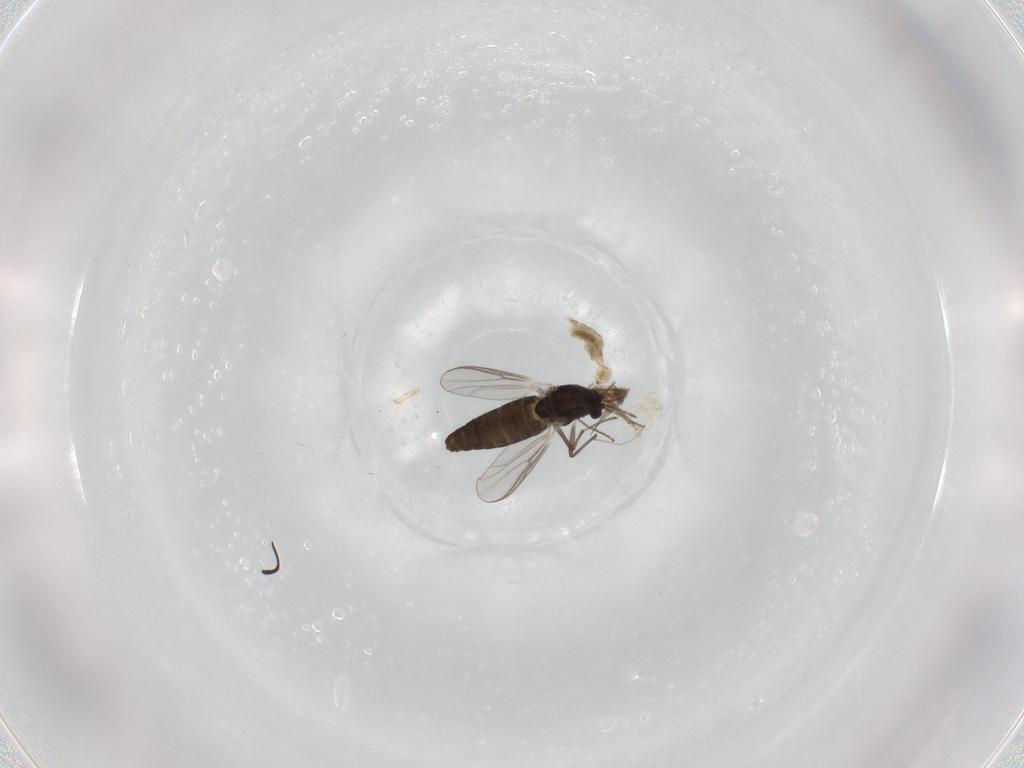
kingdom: Animalia
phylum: Arthropoda
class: Insecta
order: Diptera
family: Chironomidae
